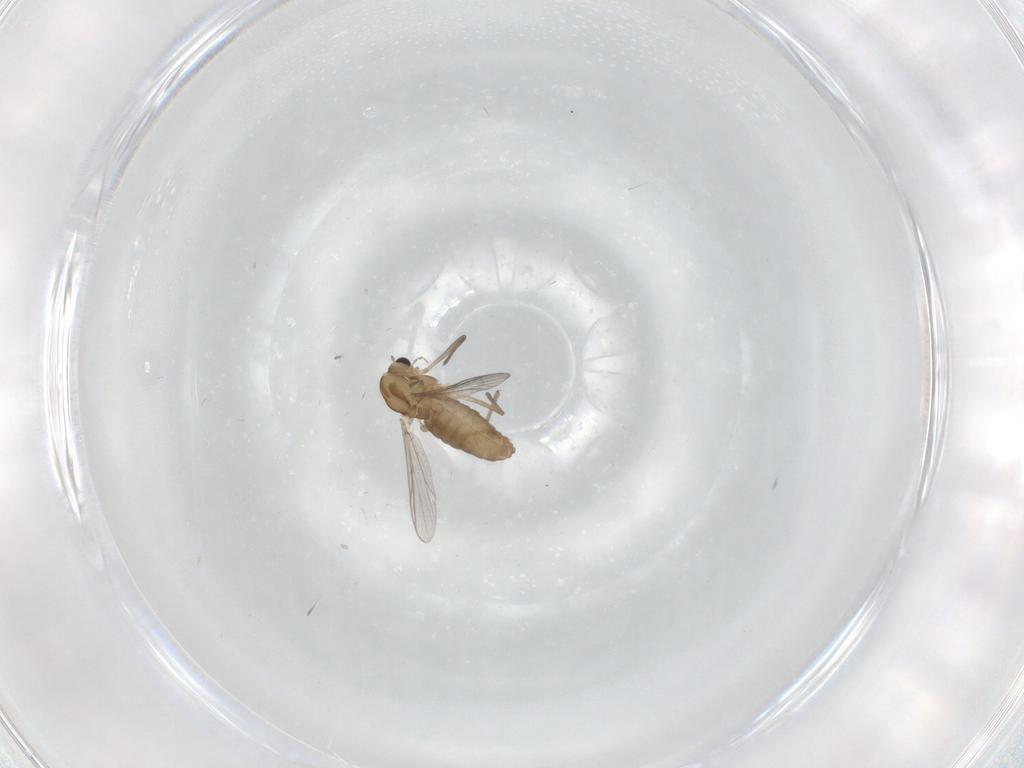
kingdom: Animalia
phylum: Arthropoda
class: Insecta
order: Diptera
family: Chironomidae
